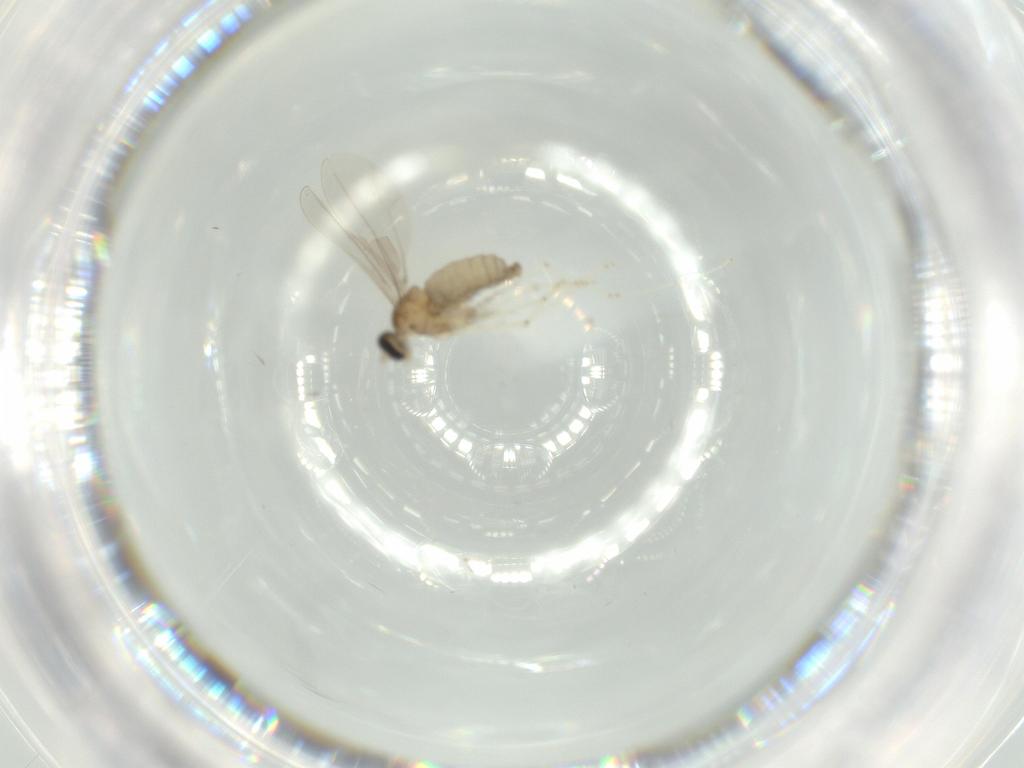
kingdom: Animalia
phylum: Arthropoda
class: Insecta
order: Diptera
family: Cecidomyiidae
